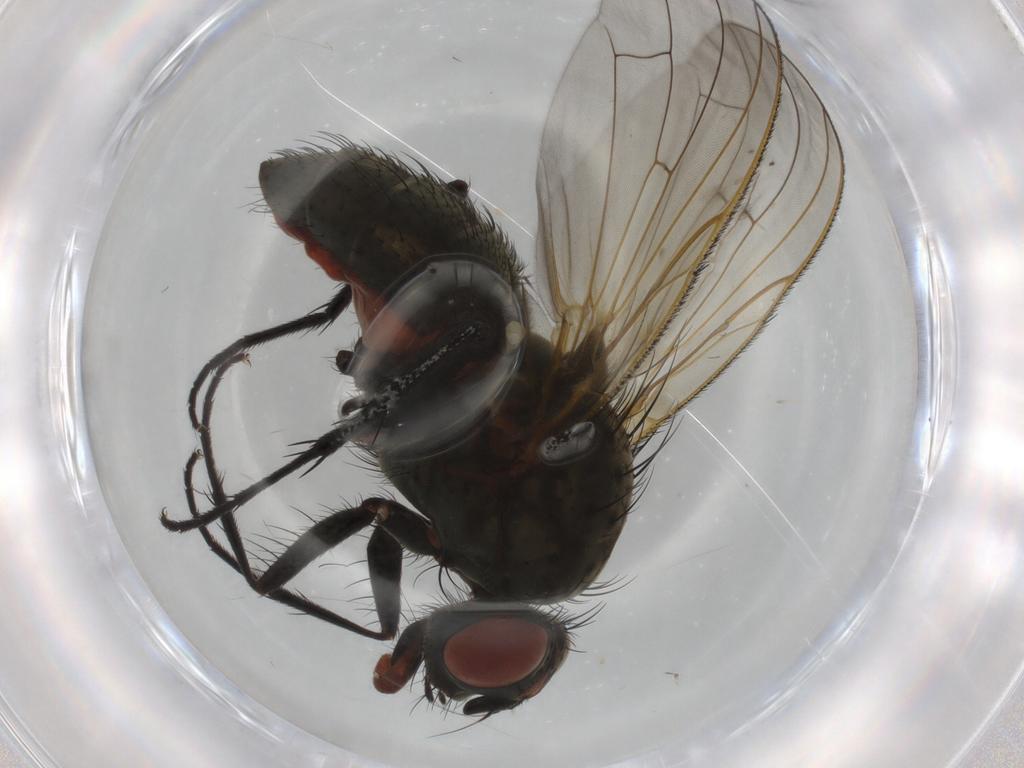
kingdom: Animalia
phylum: Arthropoda
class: Insecta
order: Diptera
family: Anthomyiidae
